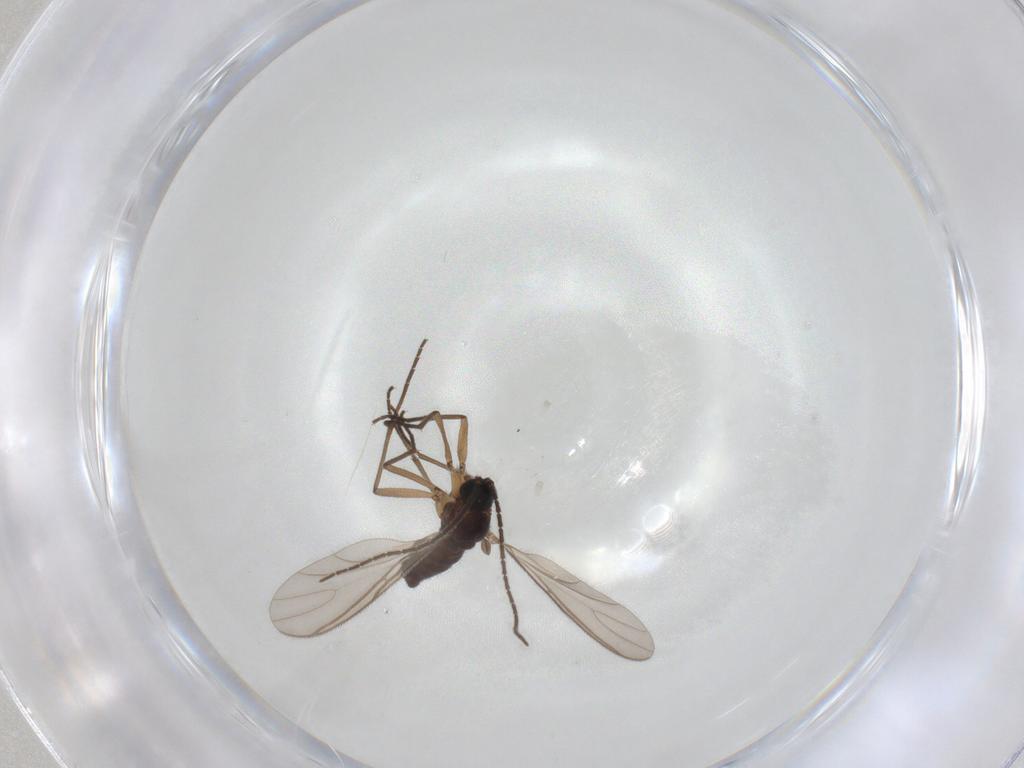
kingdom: Animalia
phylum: Arthropoda
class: Insecta
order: Diptera
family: Sciaridae
